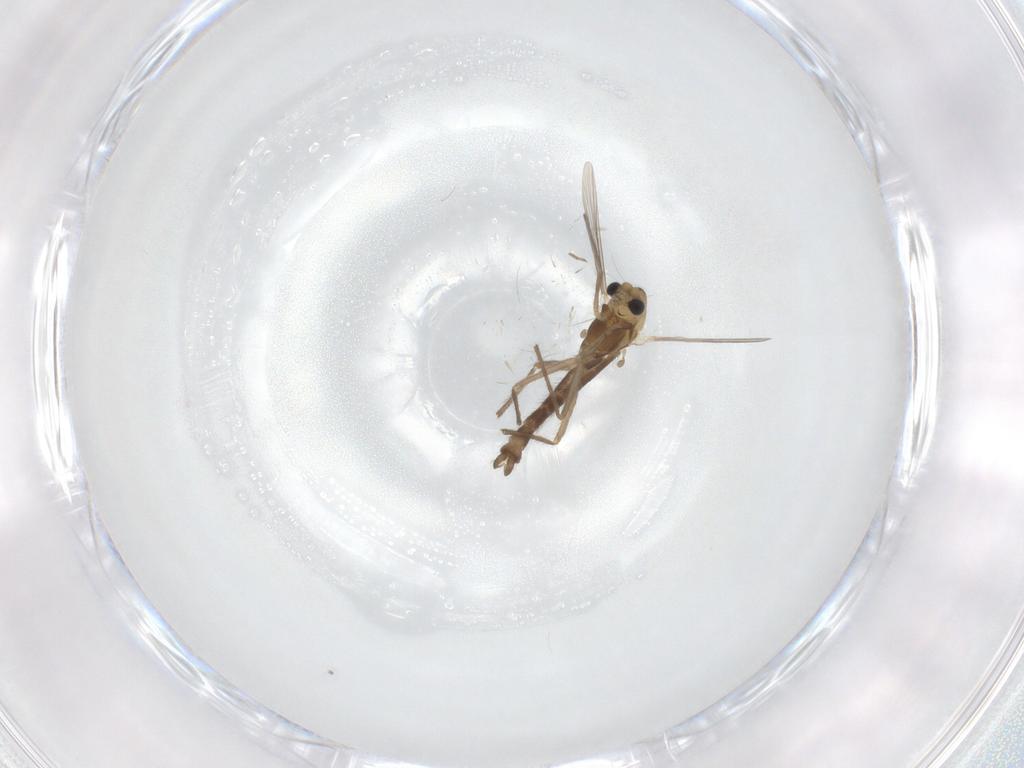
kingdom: Animalia
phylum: Arthropoda
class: Insecta
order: Diptera
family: Chironomidae
